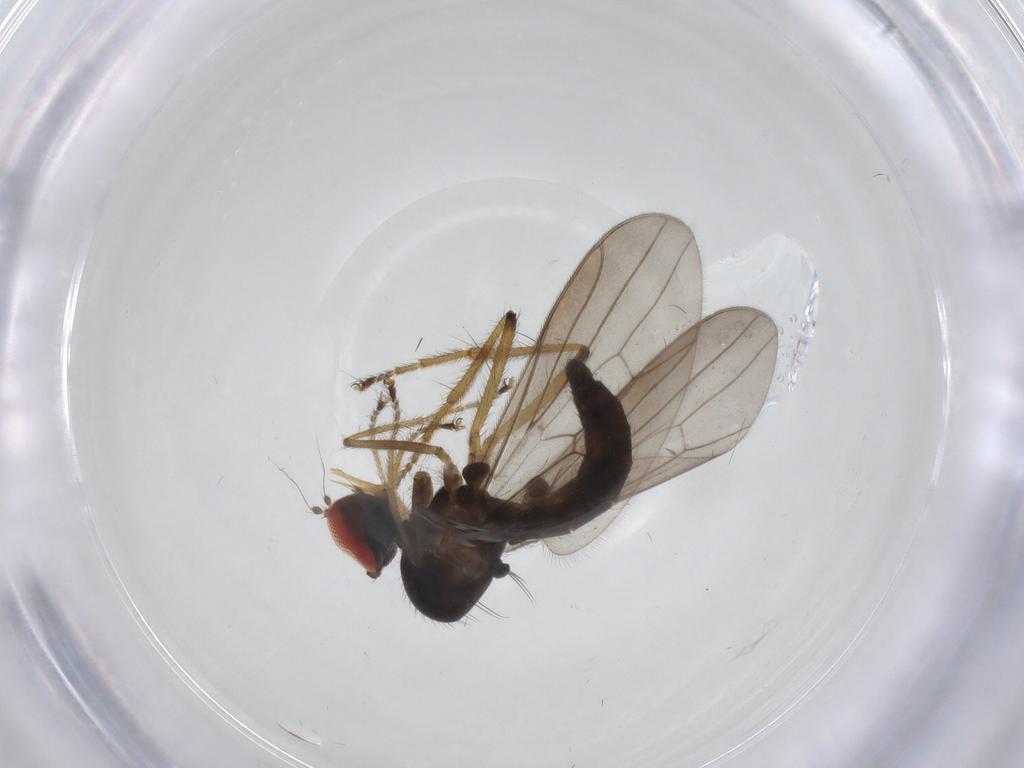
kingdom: Animalia
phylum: Arthropoda
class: Insecta
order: Diptera
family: Hybotidae
